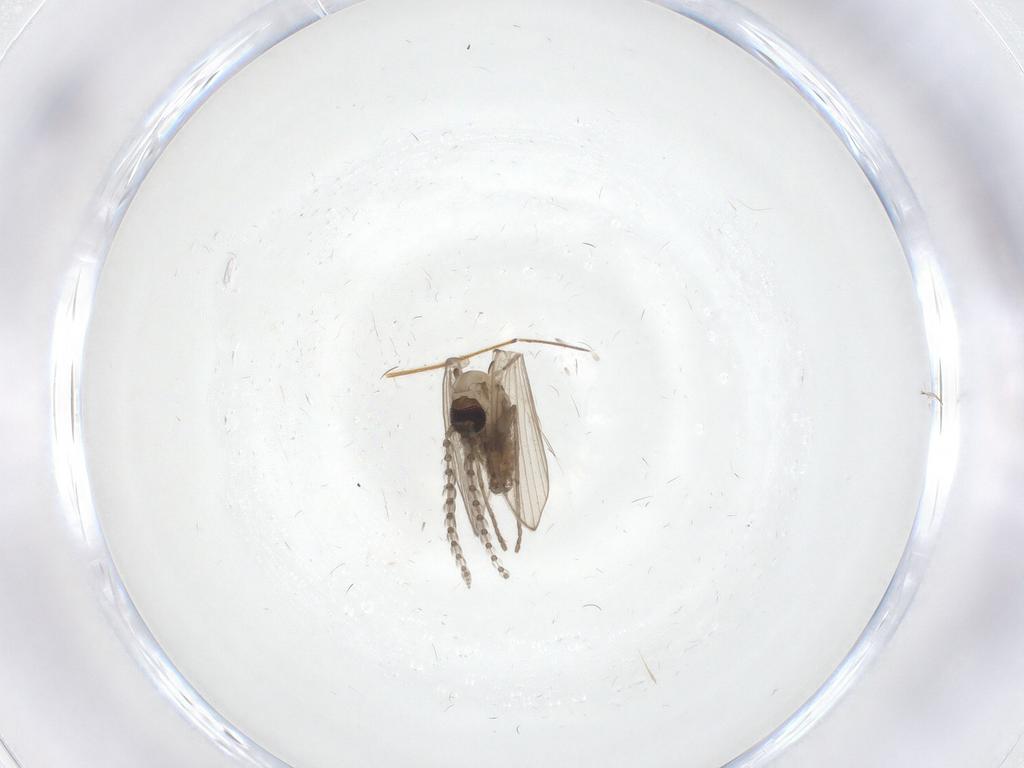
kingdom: Animalia
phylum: Arthropoda
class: Insecta
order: Diptera
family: Psychodidae
